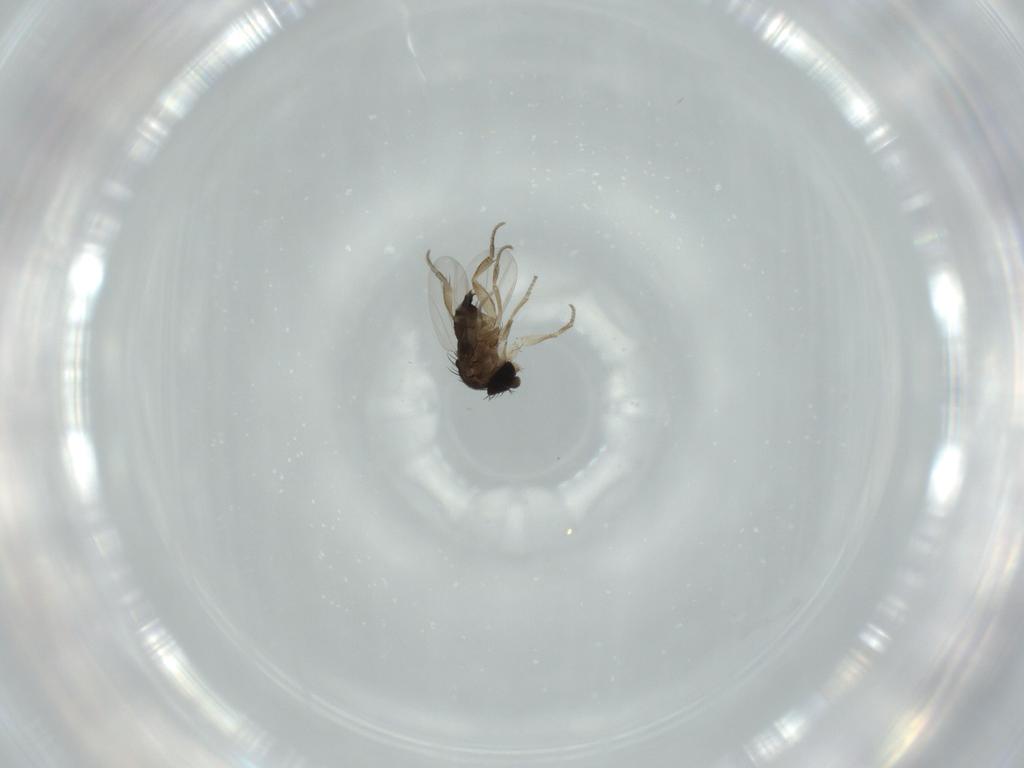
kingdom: Animalia
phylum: Arthropoda
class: Insecta
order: Diptera
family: Phoridae
